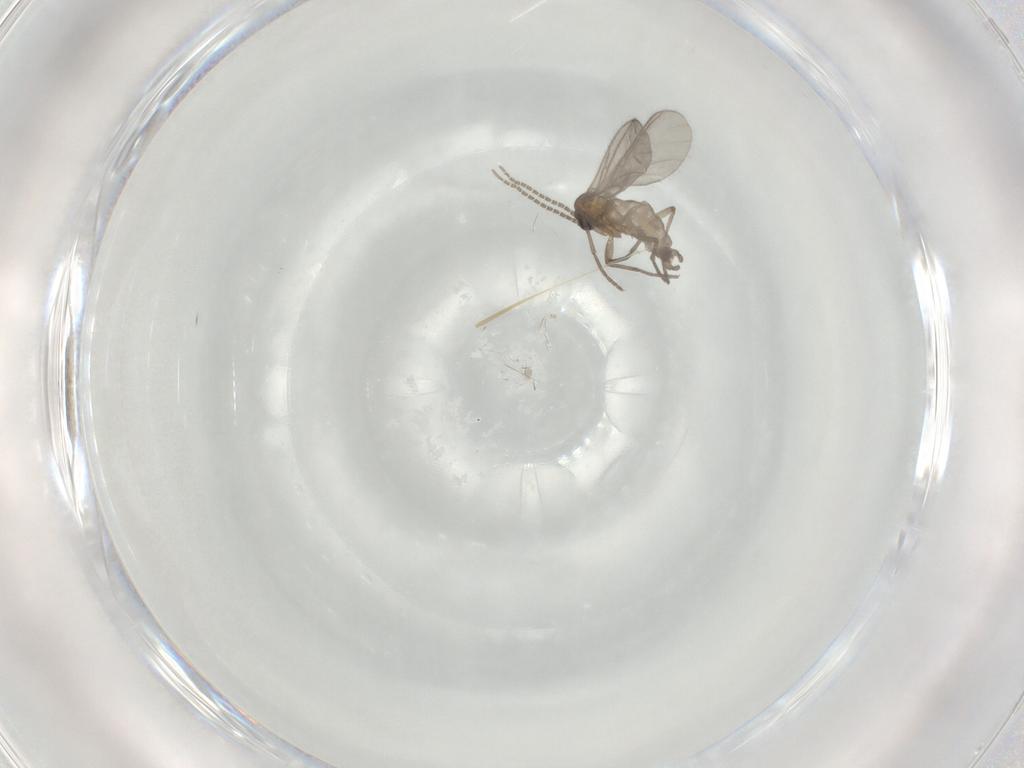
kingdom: Animalia
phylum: Arthropoda
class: Insecta
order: Diptera
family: Sciaridae
